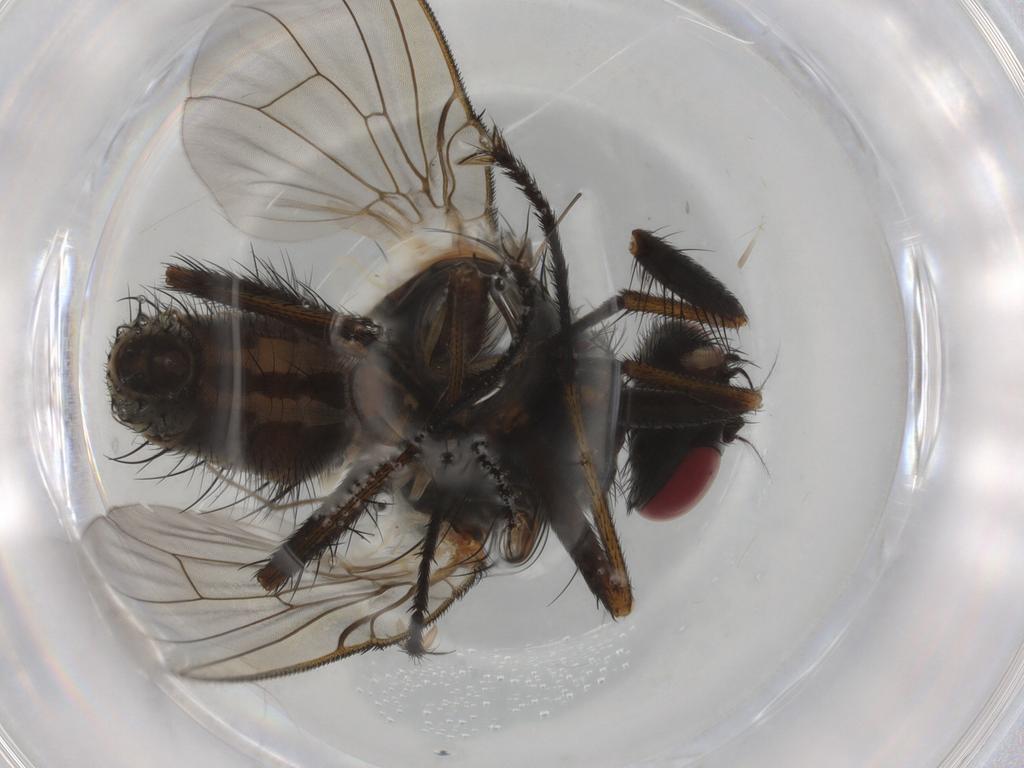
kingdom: Animalia
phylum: Arthropoda
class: Insecta
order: Diptera
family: Muscidae
